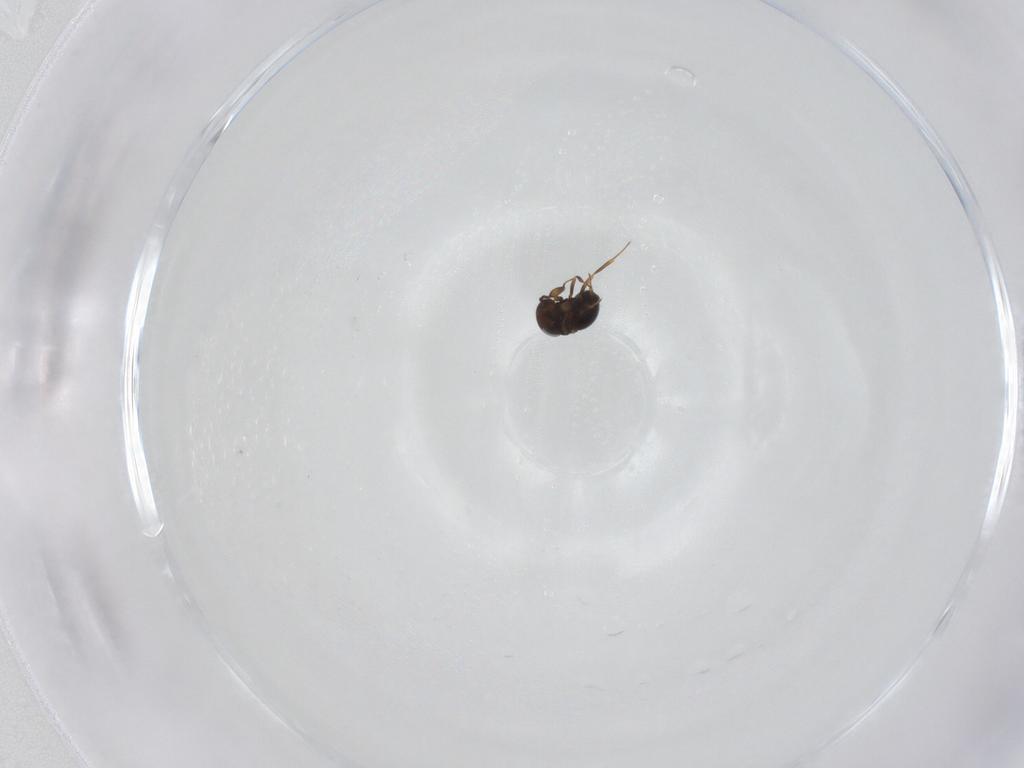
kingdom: Animalia
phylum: Arthropoda
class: Insecta
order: Hymenoptera
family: Scelionidae
